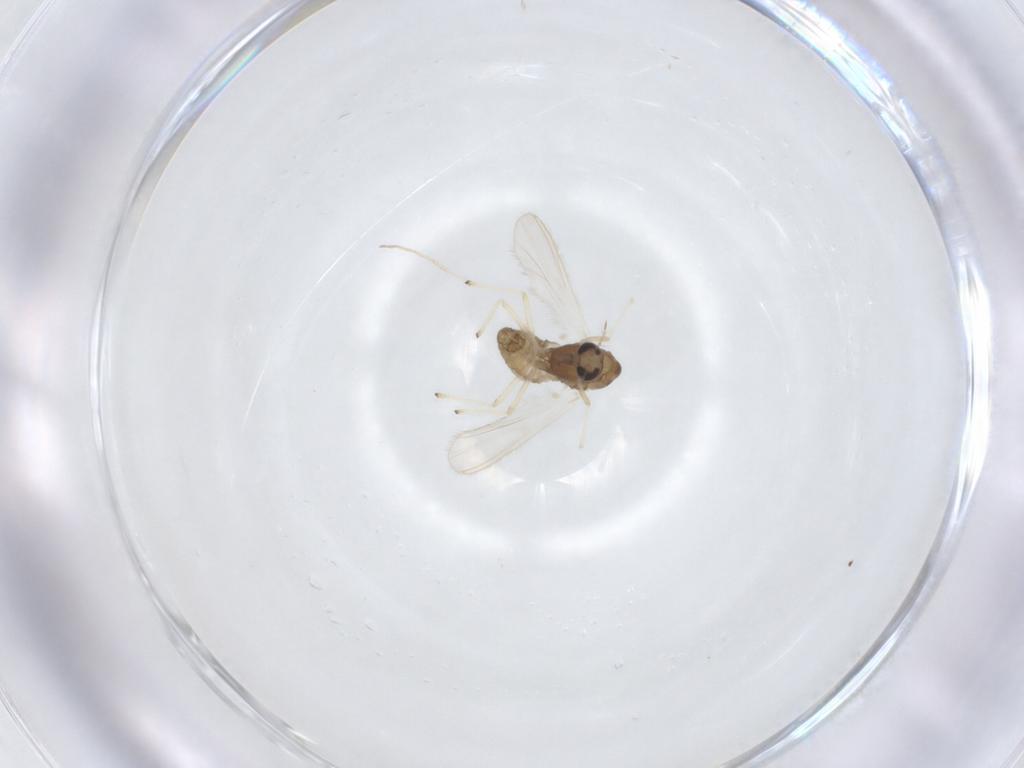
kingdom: Animalia
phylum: Arthropoda
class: Insecta
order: Diptera
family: Chironomidae
